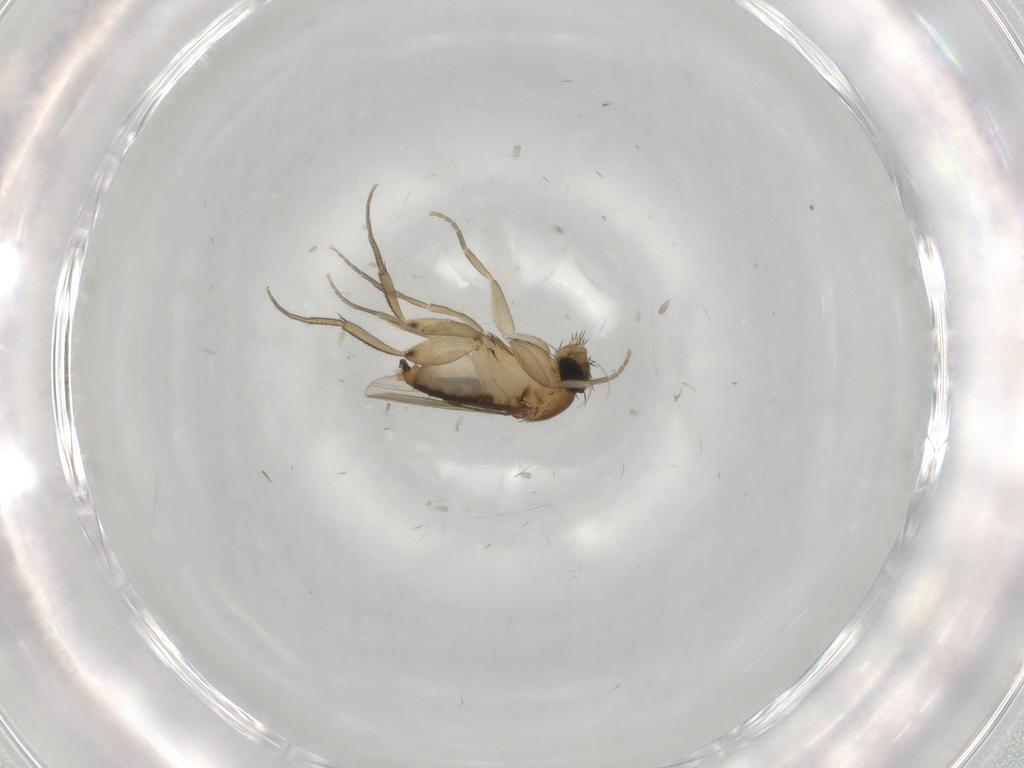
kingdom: Animalia
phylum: Arthropoda
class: Insecta
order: Diptera
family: Phoridae
